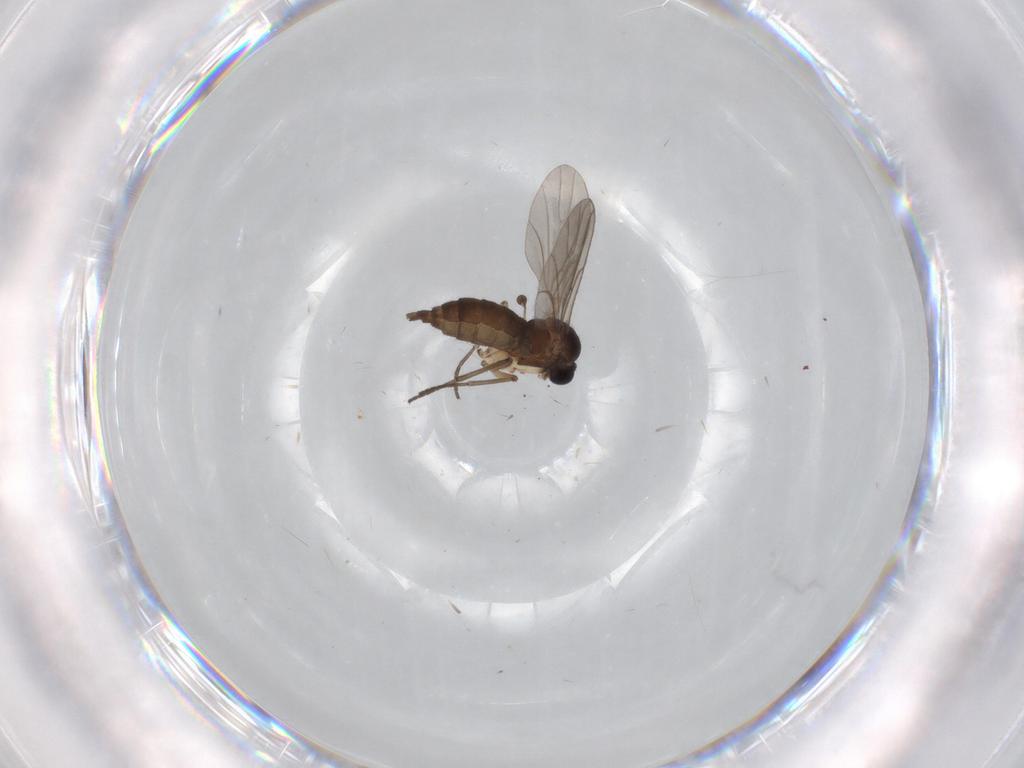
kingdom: Animalia
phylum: Arthropoda
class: Insecta
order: Diptera
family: Sciaridae
